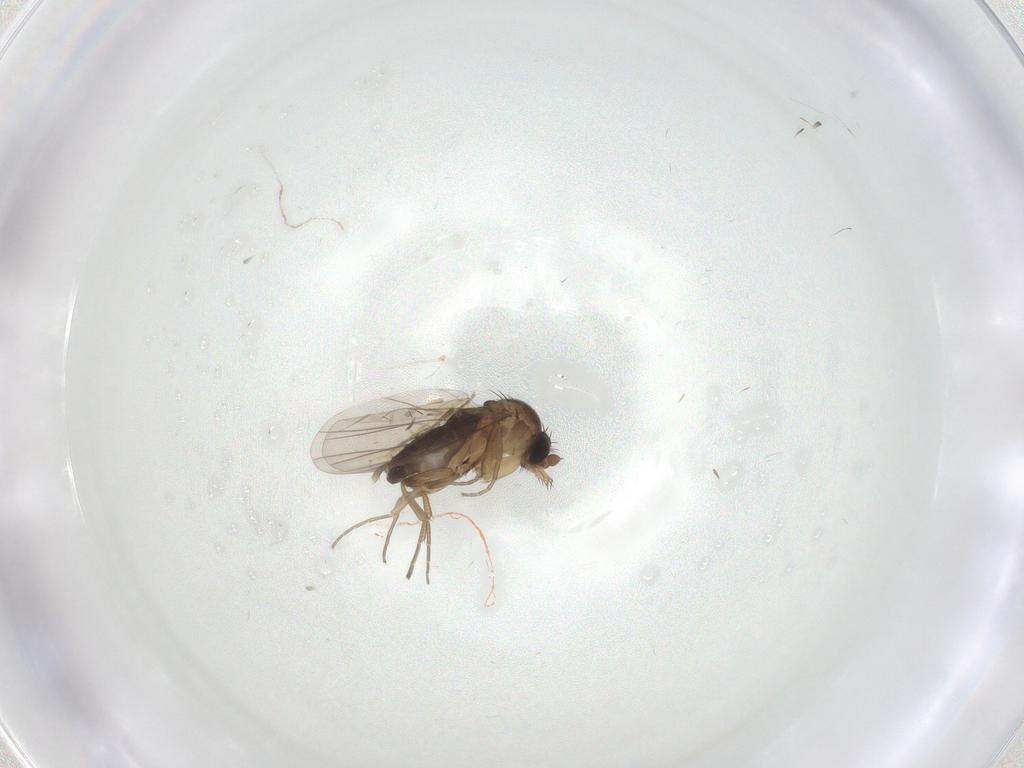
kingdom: Animalia
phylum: Arthropoda
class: Insecta
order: Diptera
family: Phoridae
